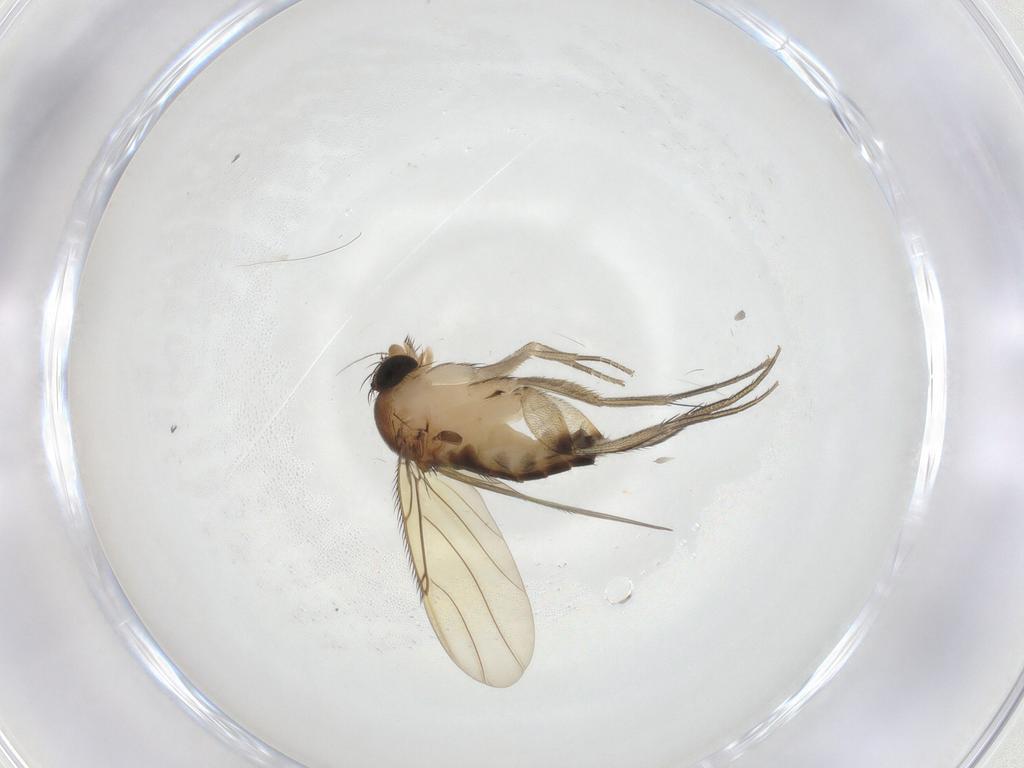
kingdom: Animalia
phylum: Arthropoda
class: Insecta
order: Diptera
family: Phoridae
